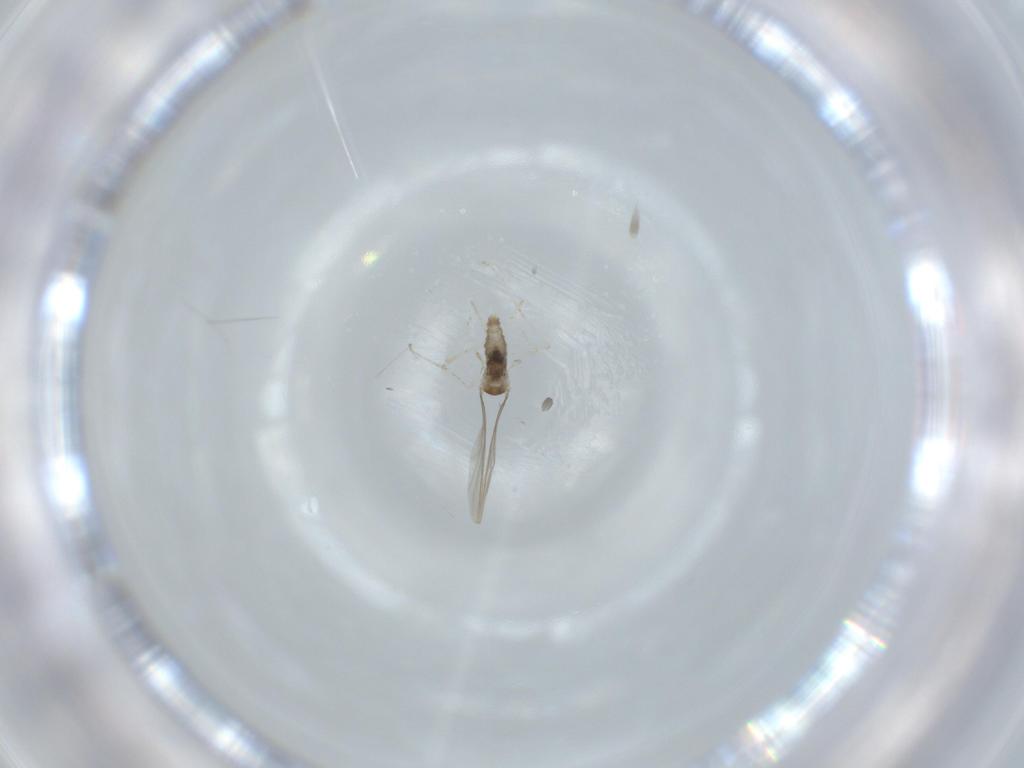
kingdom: Animalia
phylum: Arthropoda
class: Insecta
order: Diptera
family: Cecidomyiidae
